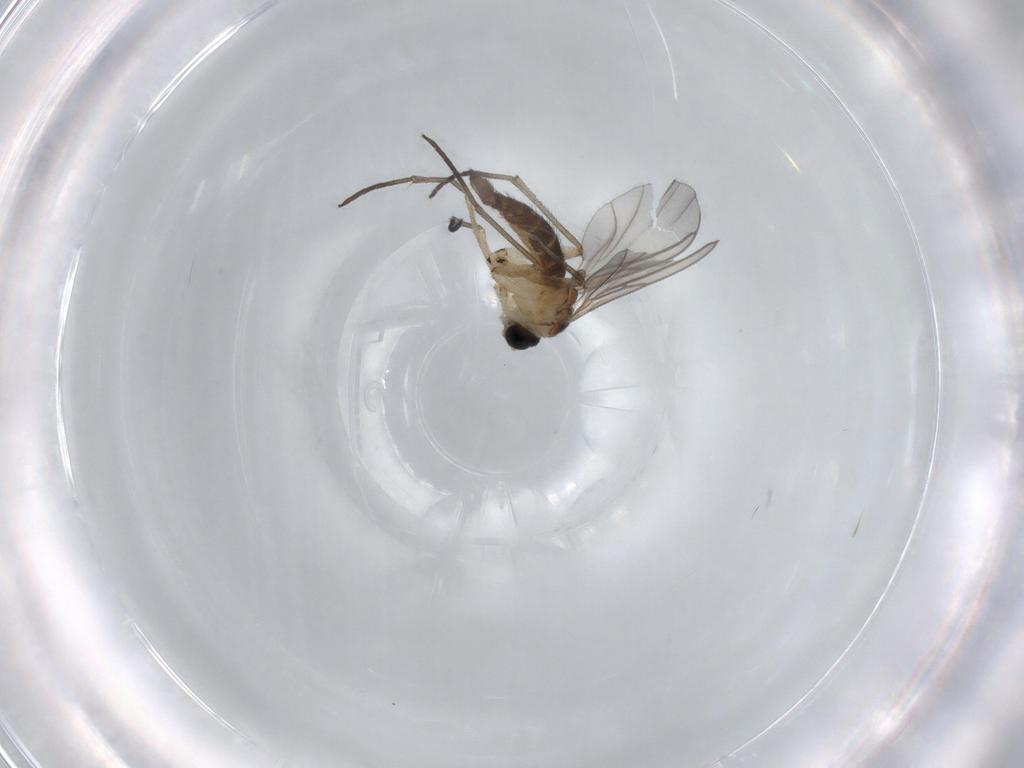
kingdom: Animalia
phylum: Arthropoda
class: Insecta
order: Diptera
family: Sciaridae
